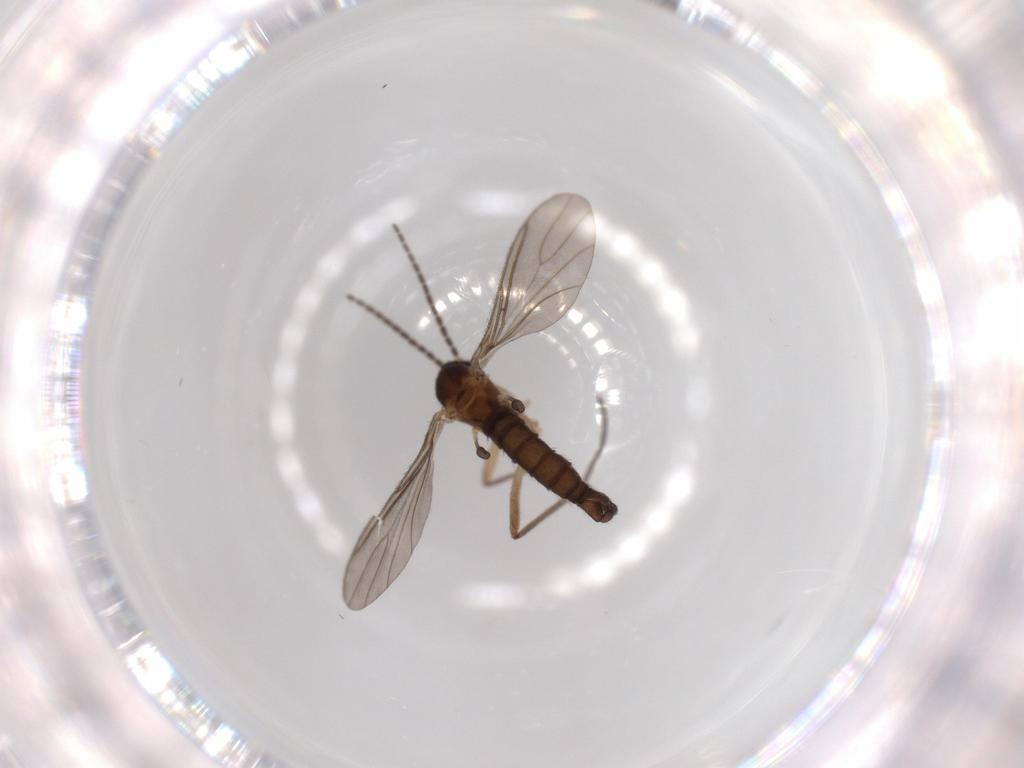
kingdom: Animalia
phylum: Arthropoda
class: Insecta
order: Diptera
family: Sciaridae
